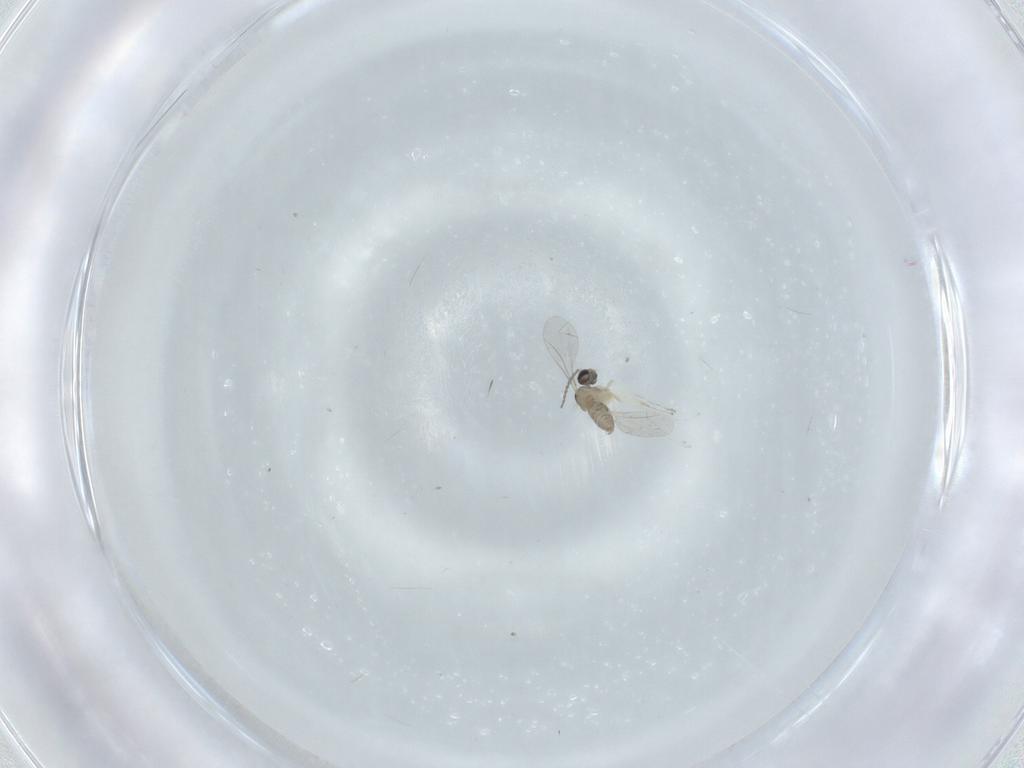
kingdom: Animalia
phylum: Arthropoda
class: Insecta
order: Diptera
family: Cecidomyiidae
